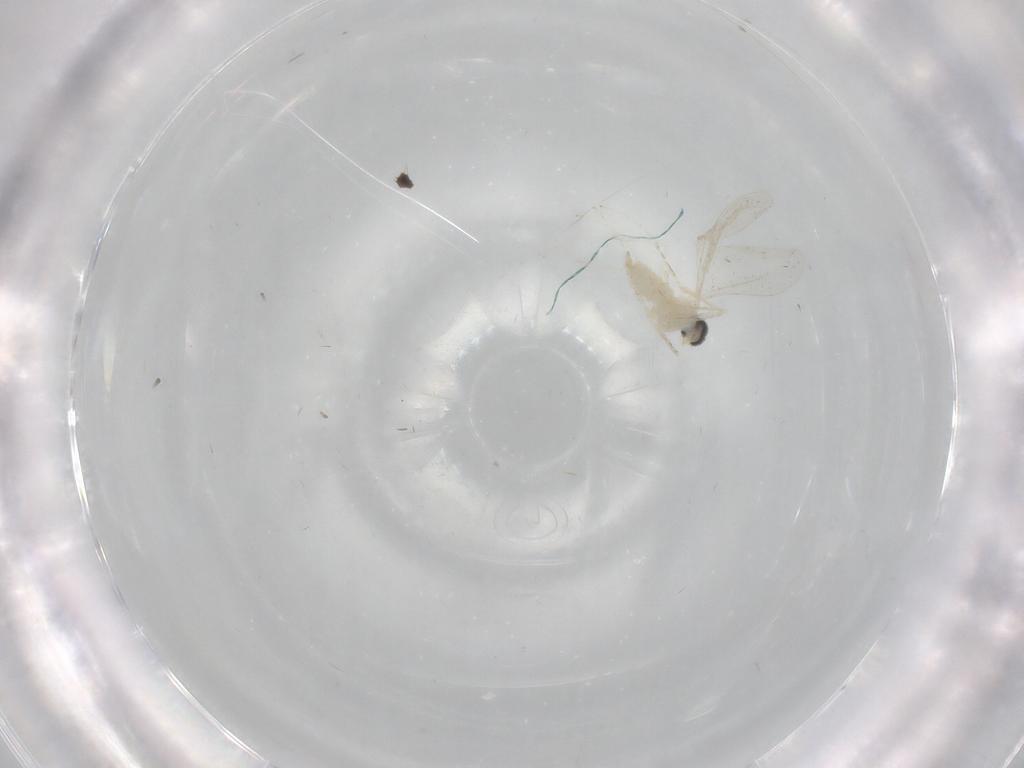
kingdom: Animalia
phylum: Arthropoda
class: Insecta
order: Diptera
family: Cecidomyiidae
